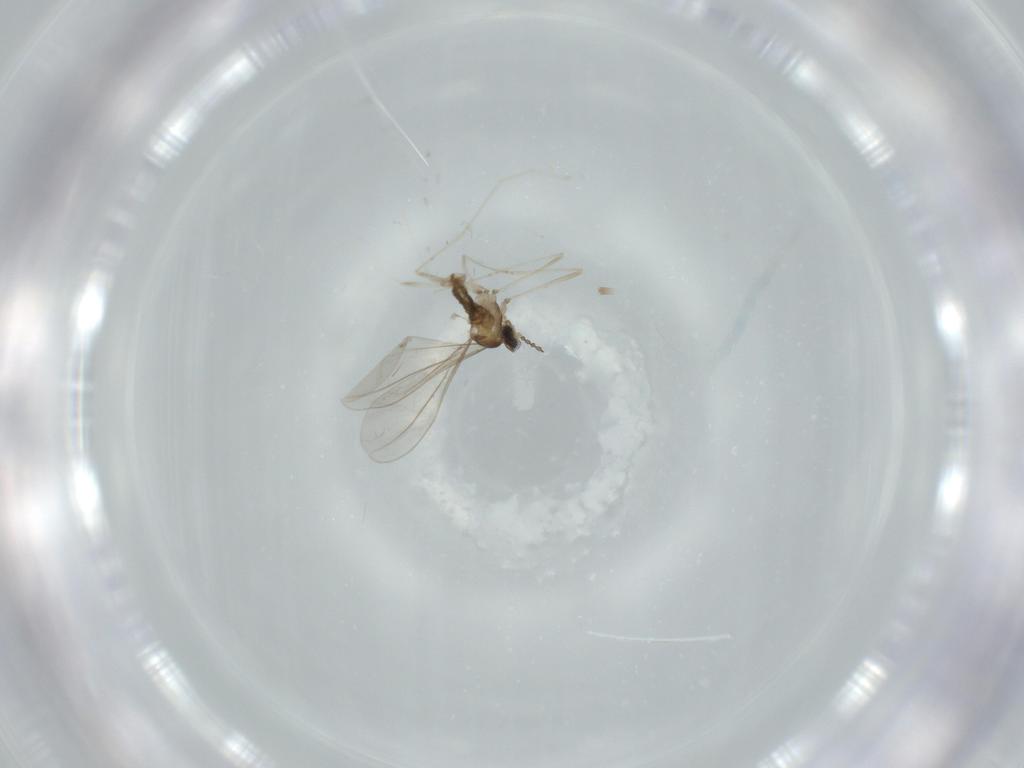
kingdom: Animalia
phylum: Arthropoda
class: Insecta
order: Diptera
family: Cecidomyiidae
